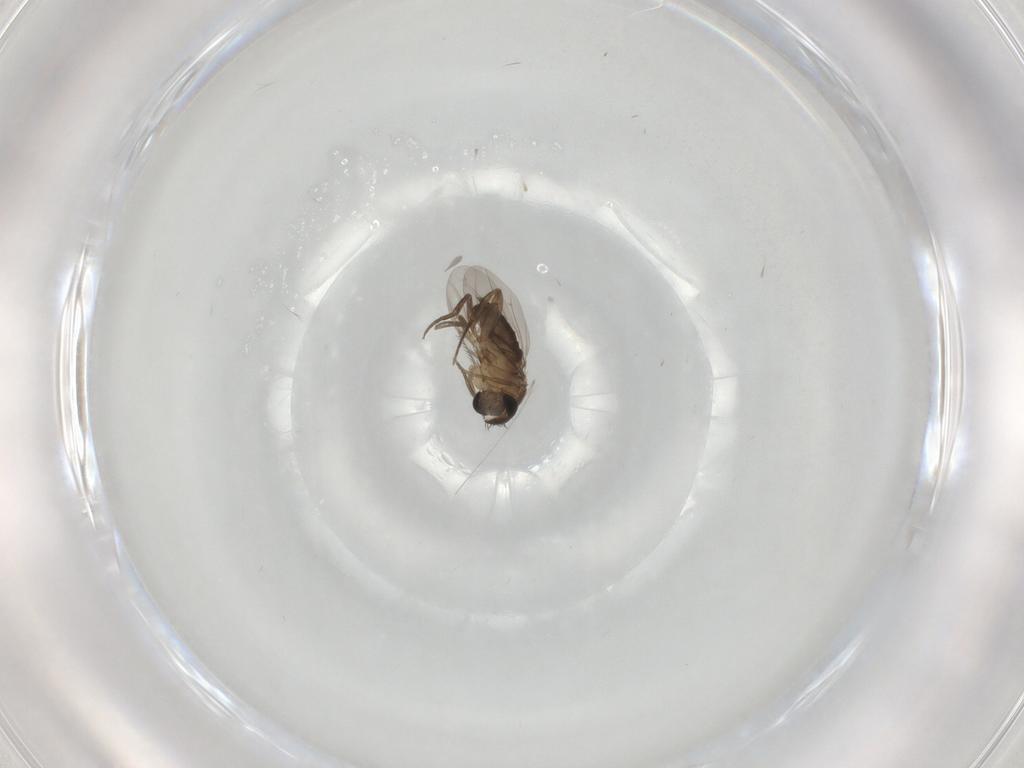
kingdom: Animalia
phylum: Arthropoda
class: Insecta
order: Diptera
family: Phoridae
